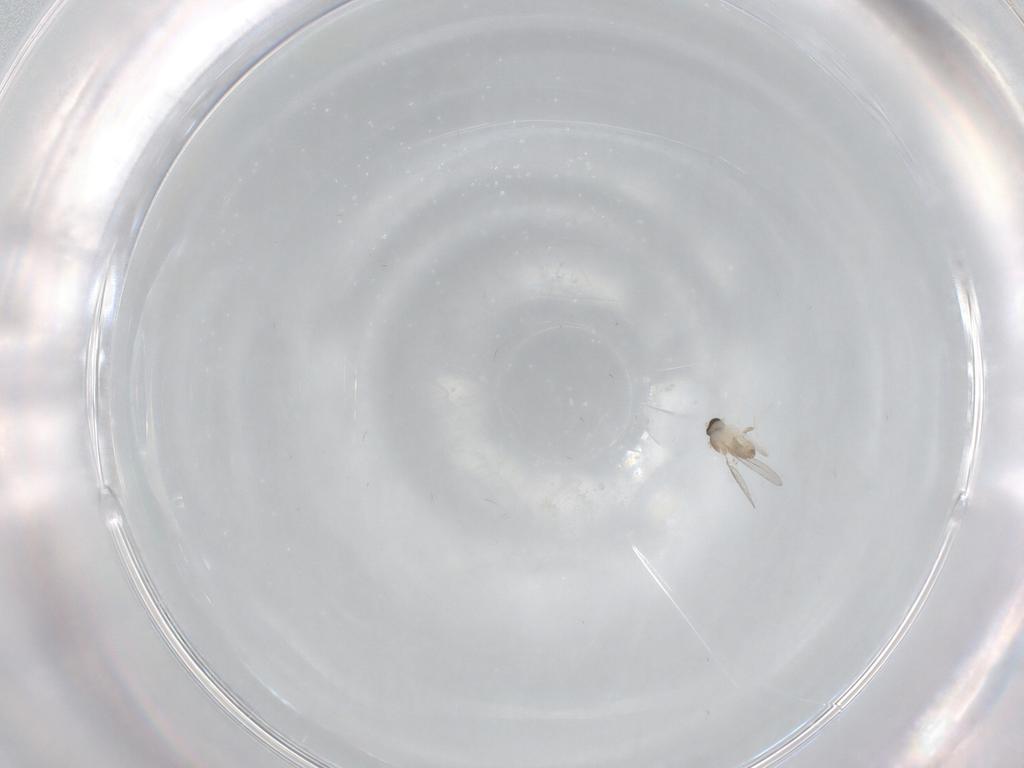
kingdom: Animalia
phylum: Arthropoda
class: Insecta
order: Diptera
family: Cecidomyiidae
